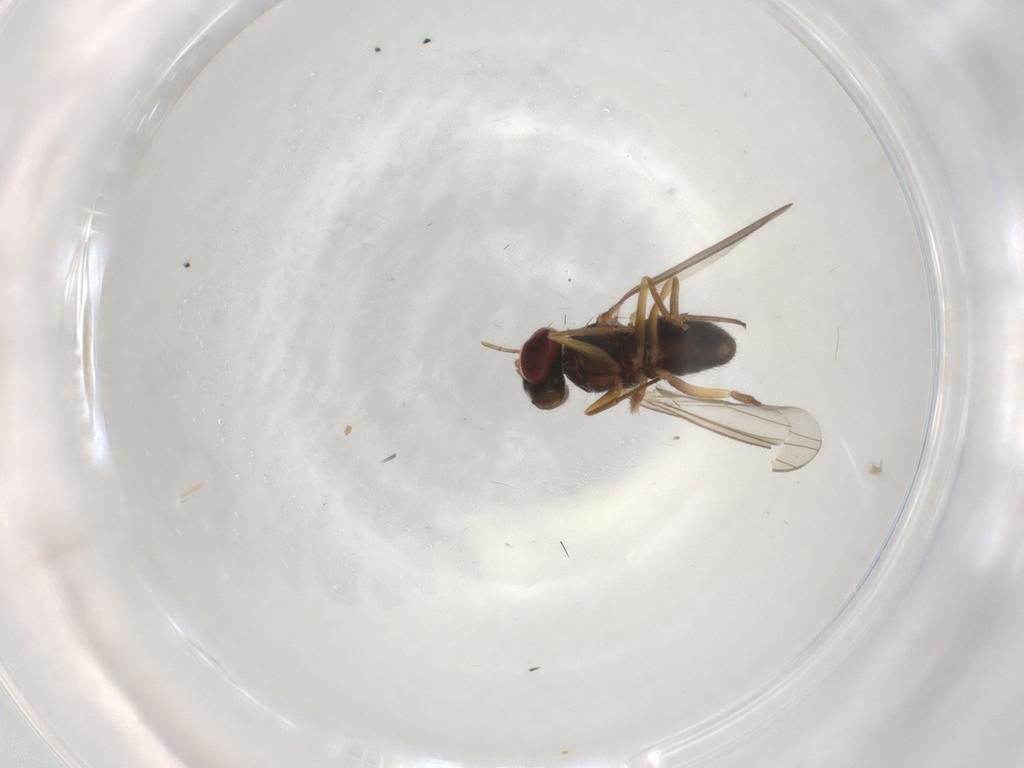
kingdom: Animalia
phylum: Arthropoda
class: Insecta
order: Diptera
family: Dolichopodidae
